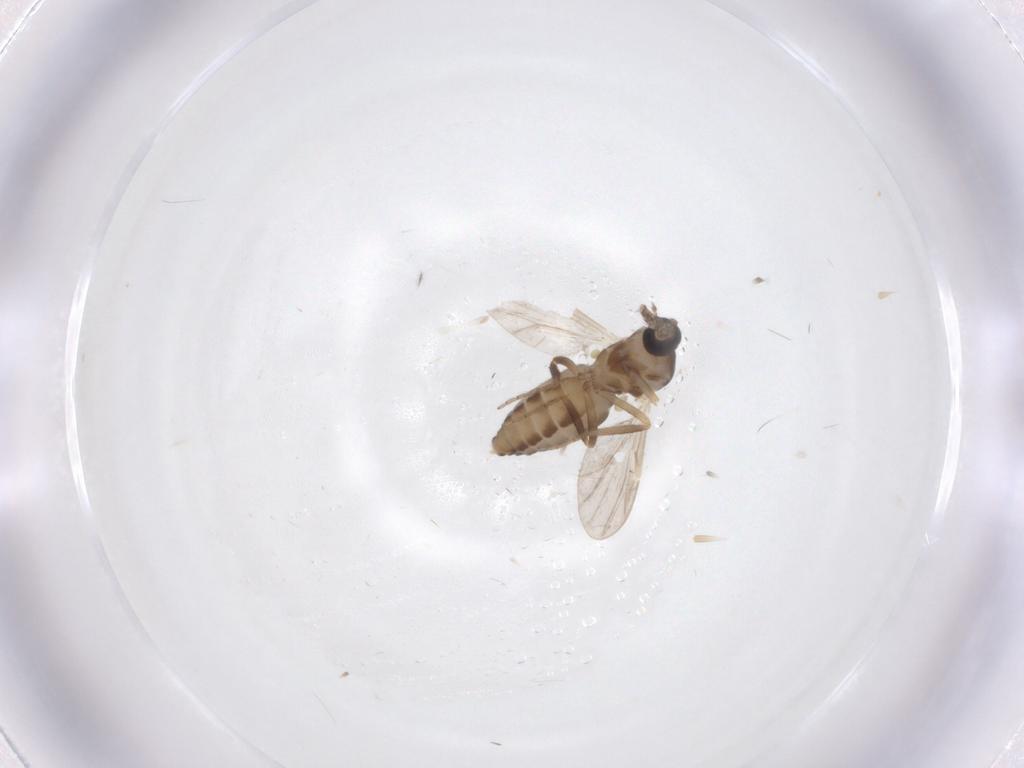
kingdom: Animalia
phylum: Arthropoda
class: Insecta
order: Diptera
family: Ceratopogonidae
